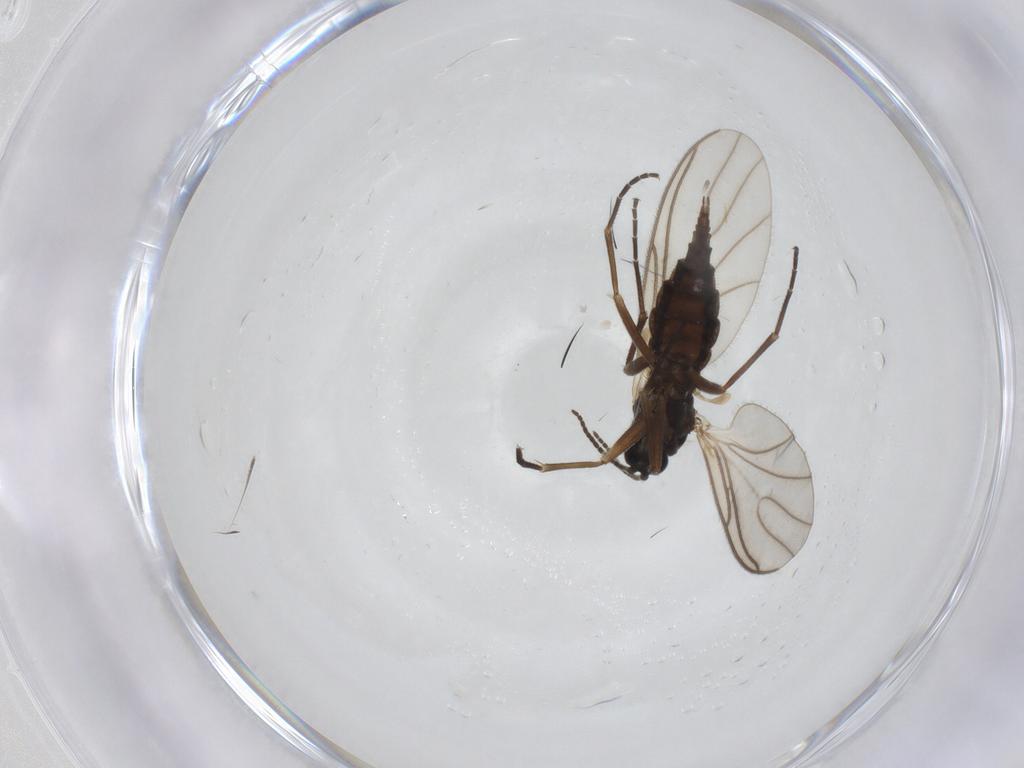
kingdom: Animalia
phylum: Arthropoda
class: Insecta
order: Diptera
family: Sciaridae
